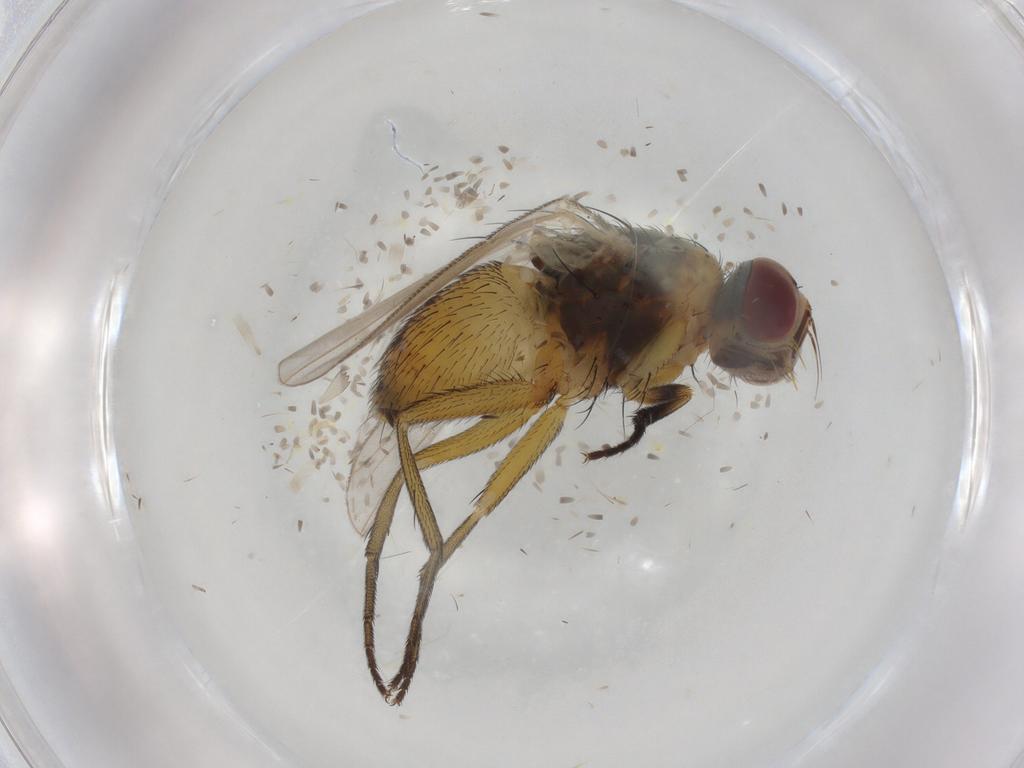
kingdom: Animalia
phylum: Arthropoda
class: Insecta
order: Diptera
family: Muscidae
